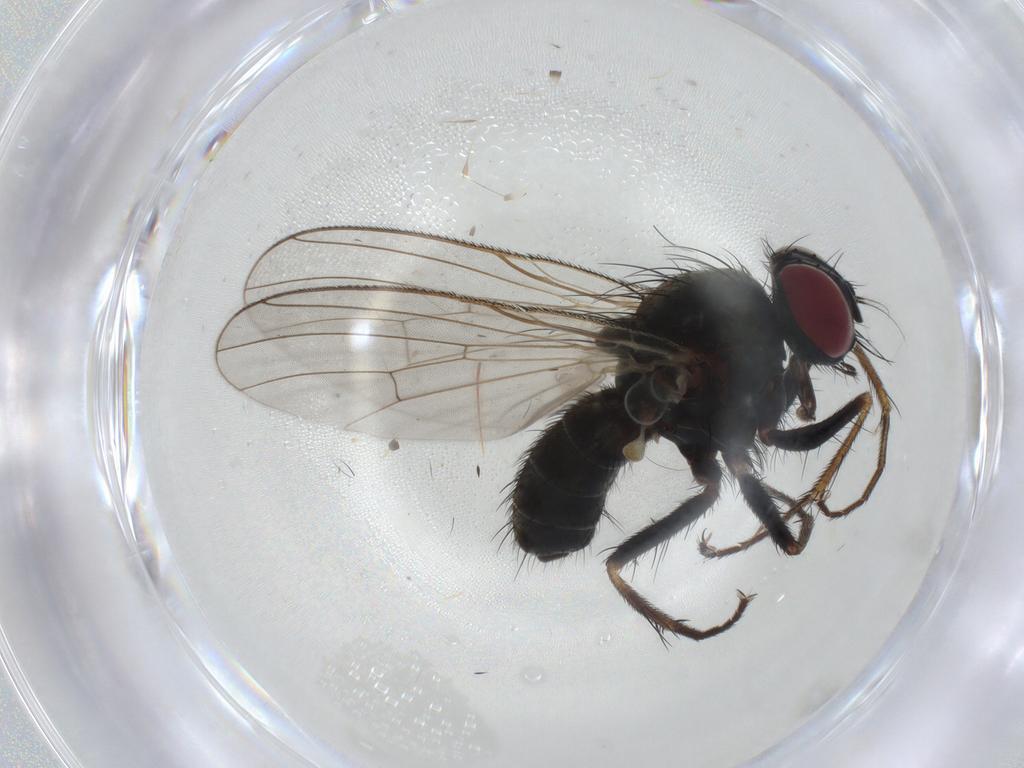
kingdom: Animalia
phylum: Arthropoda
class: Insecta
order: Diptera
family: Muscidae
